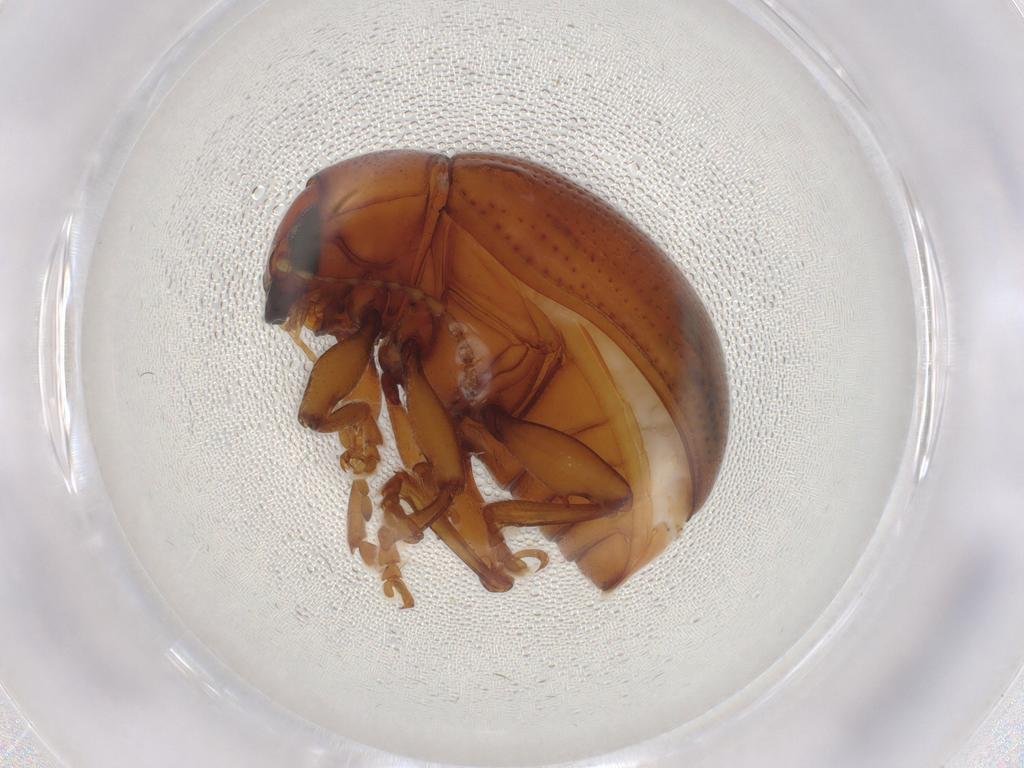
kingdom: Animalia
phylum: Arthropoda
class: Insecta
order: Coleoptera
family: Chrysomelidae
